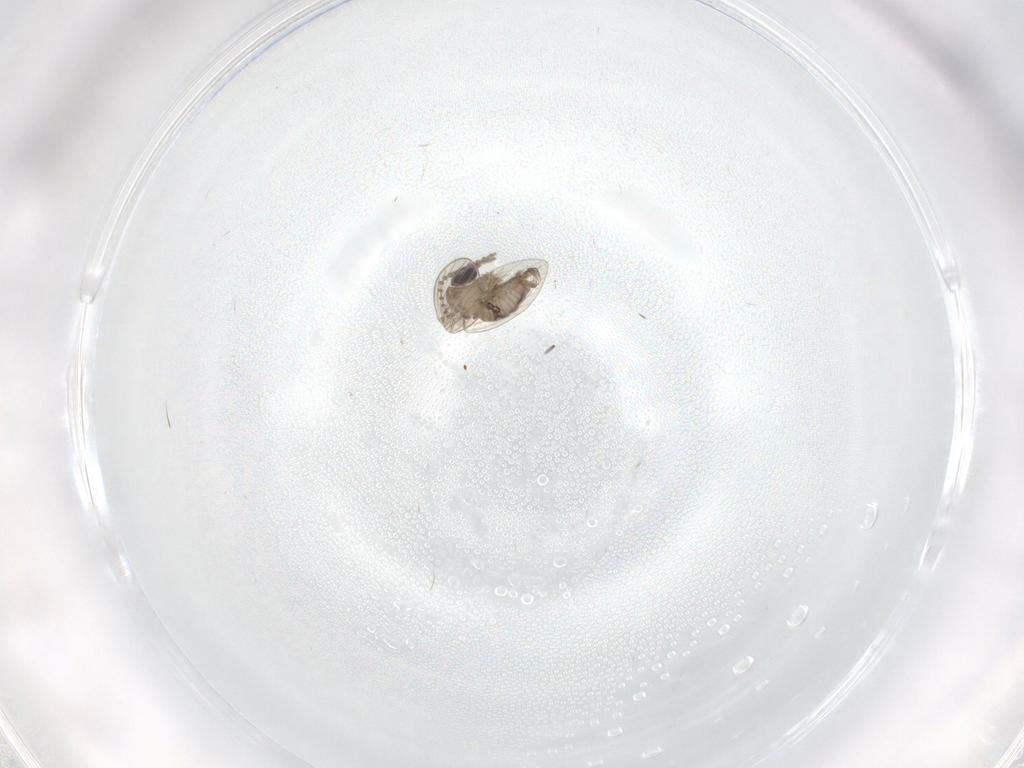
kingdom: Animalia
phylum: Arthropoda
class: Insecta
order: Diptera
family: Psychodidae
